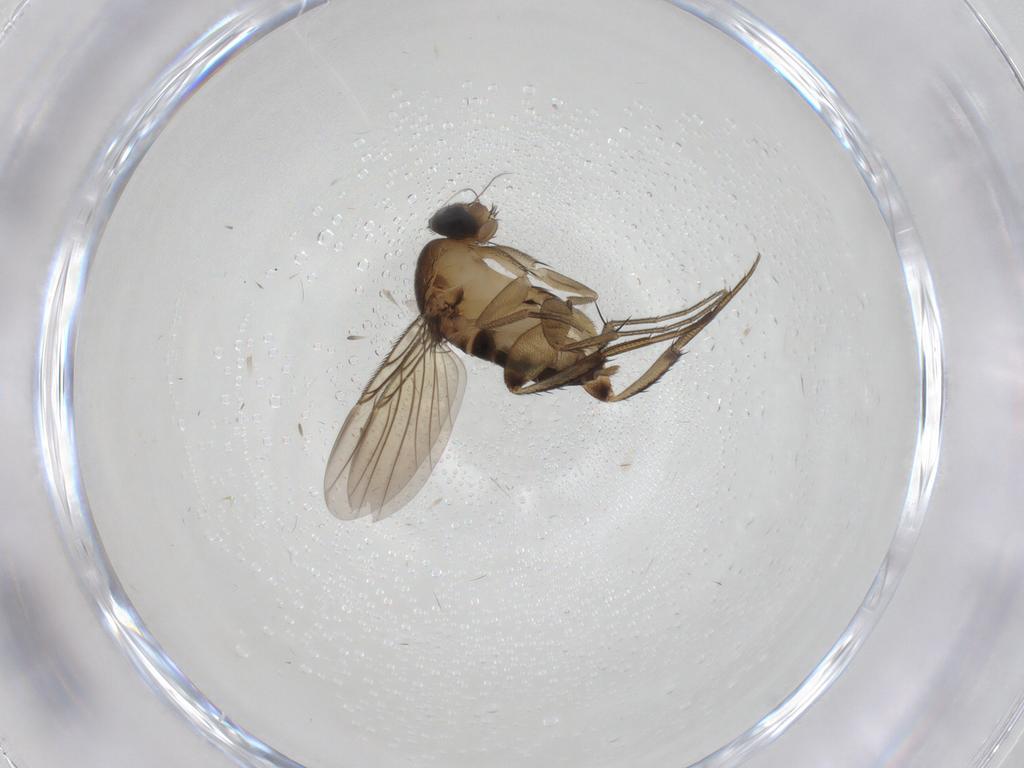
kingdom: Animalia
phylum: Arthropoda
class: Insecta
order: Diptera
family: Phoridae
